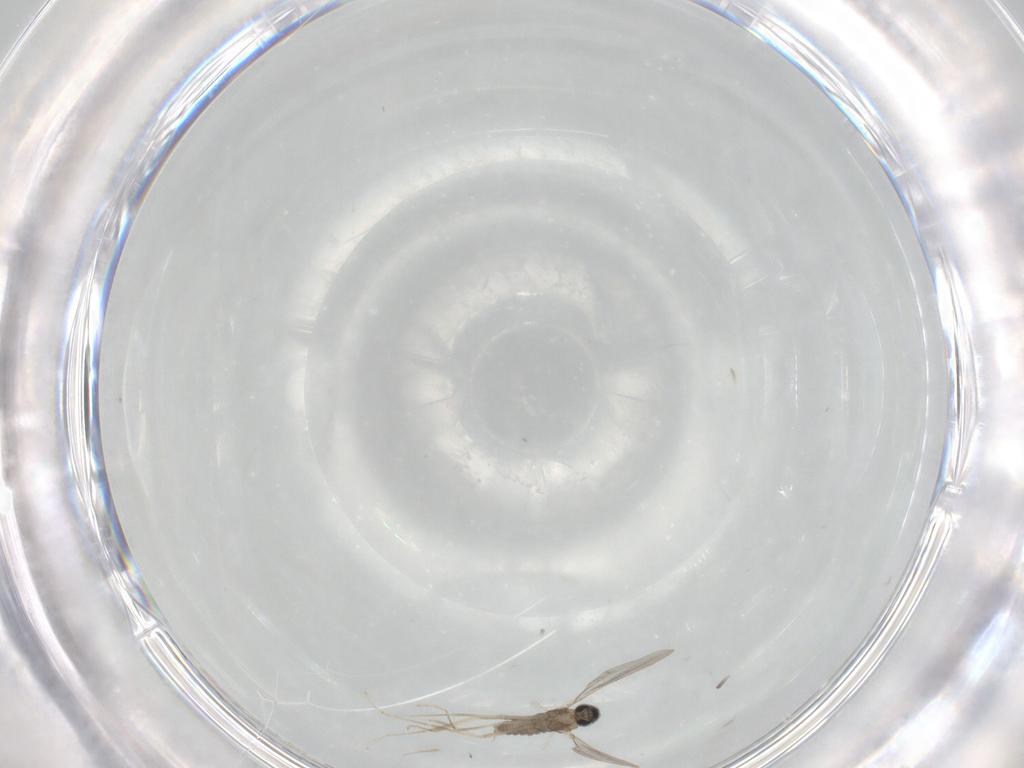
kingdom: Animalia
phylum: Arthropoda
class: Insecta
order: Diptera
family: Cecidomyiidae
